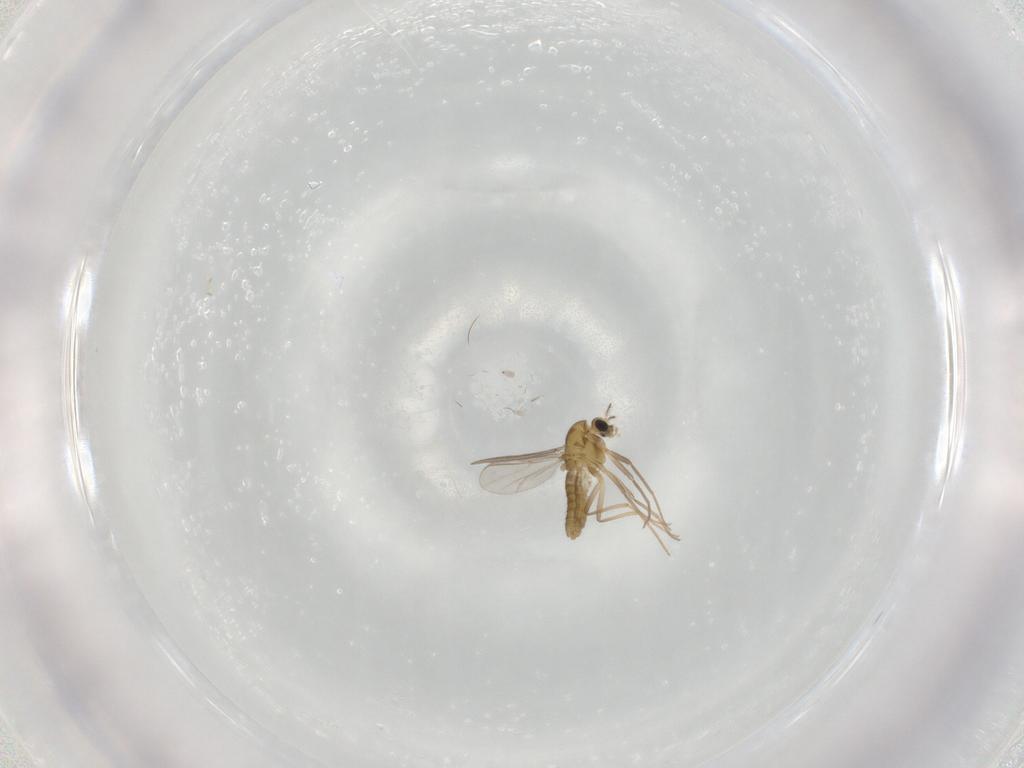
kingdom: Animalia
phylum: Arthropoda
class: Insecta
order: Diptera
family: Chironomidae
